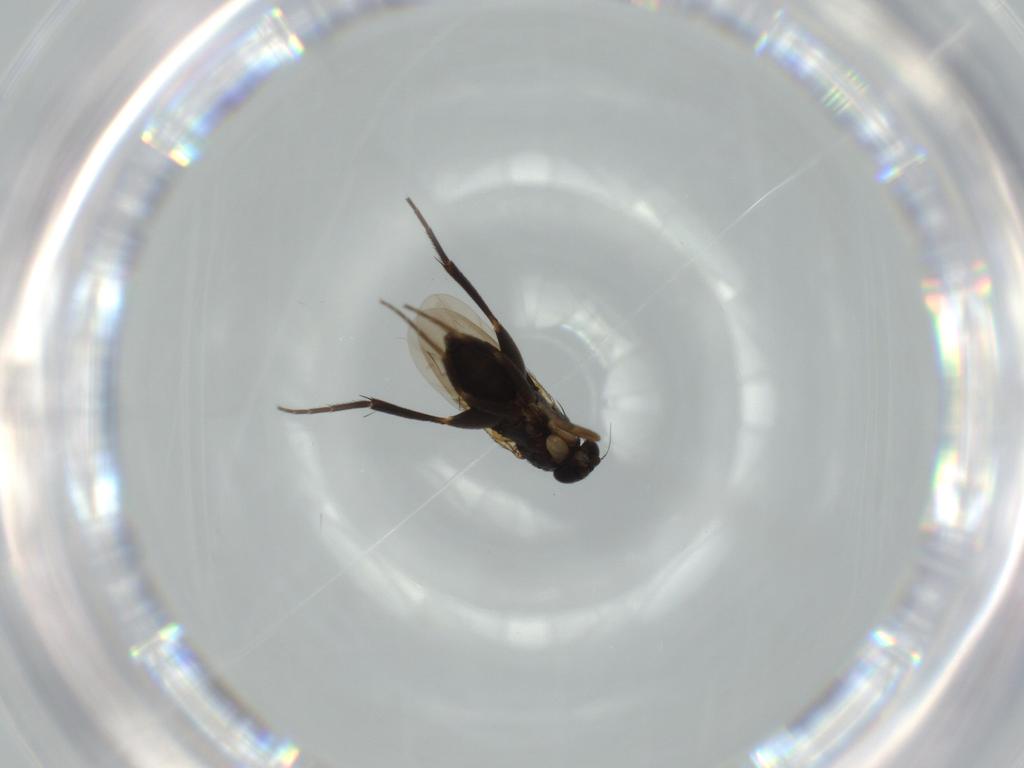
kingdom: Animalia
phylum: Arthropoda
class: Insecta
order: Diptera
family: Phoridae
